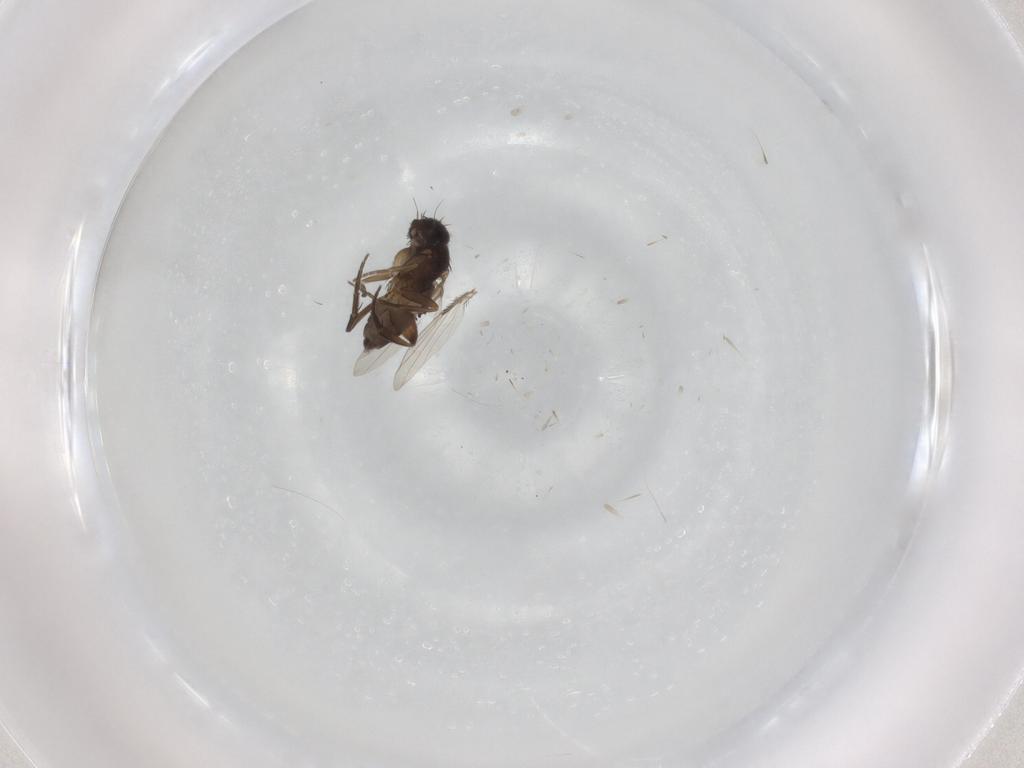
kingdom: Animalia
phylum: Arthropoda
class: Insecta
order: Diptera
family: Phoridae
